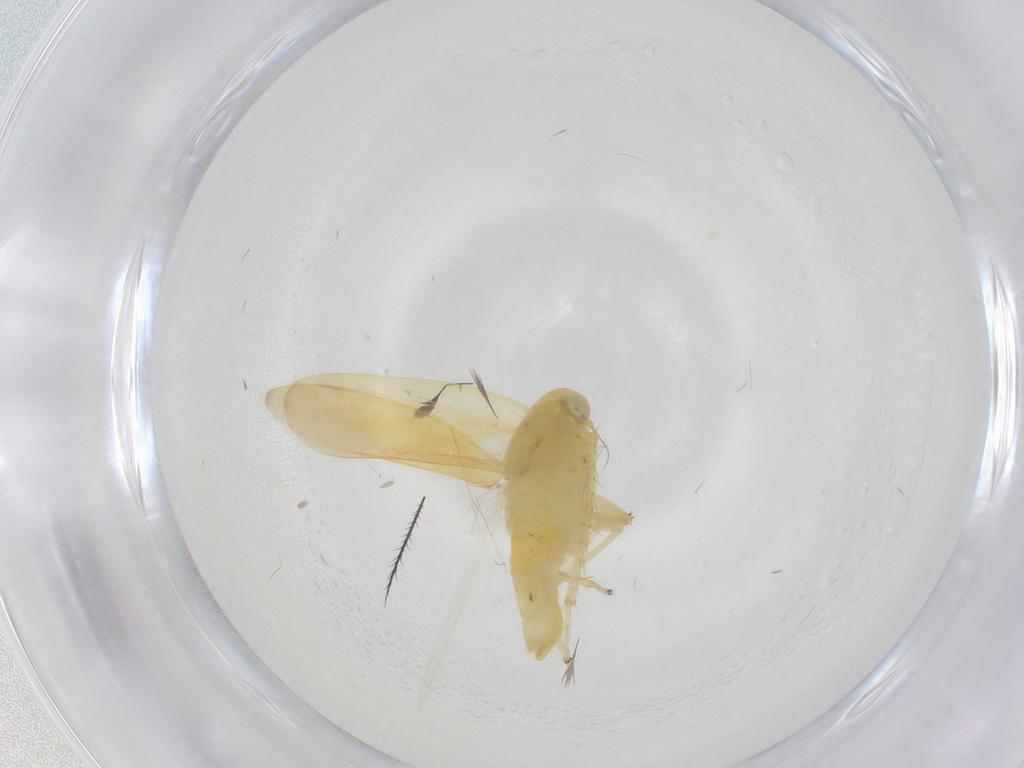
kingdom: Animalia
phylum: Arthropoda
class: Insecta
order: Hemiptera
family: Cicadellidae
